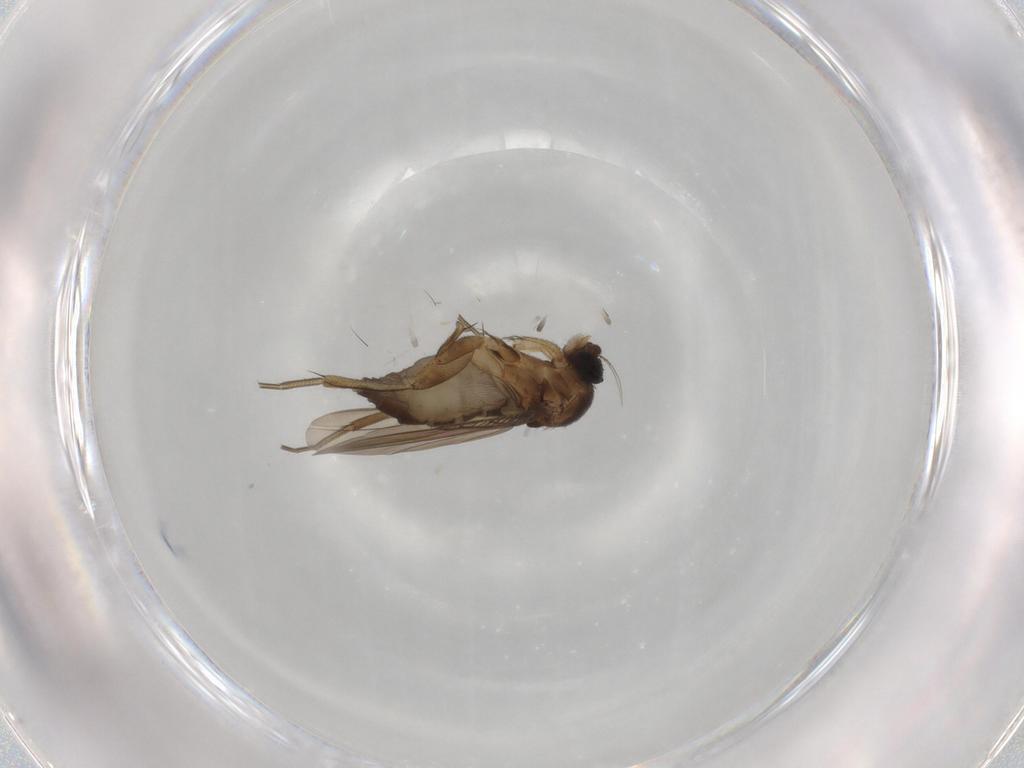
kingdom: Animalia
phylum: Arthropoda
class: Insecta
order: Diptera
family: Phoridae
